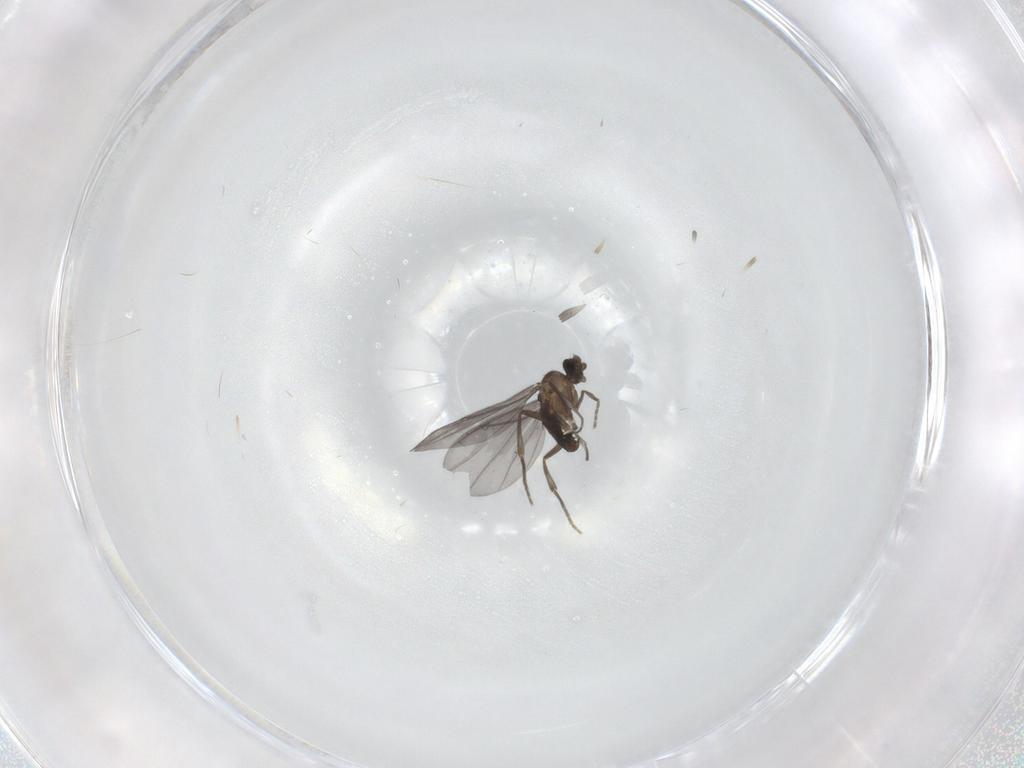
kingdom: Animalia
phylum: Arthropoda
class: Insecta
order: Diptera
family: Phoridae
